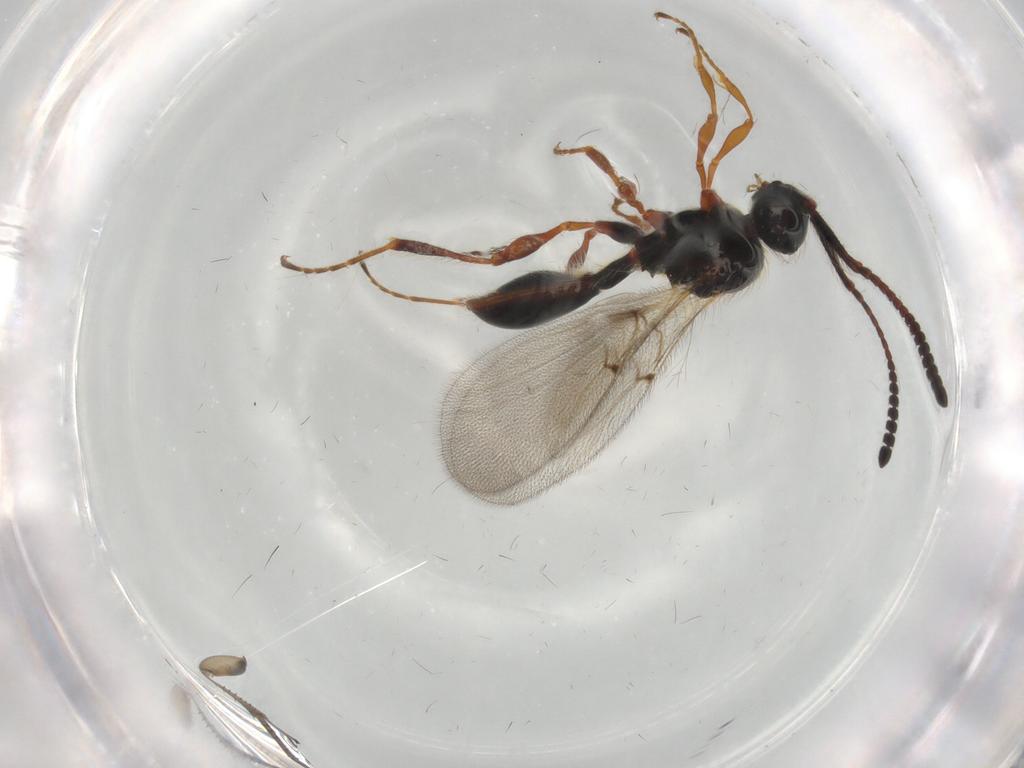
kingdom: Animalia
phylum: Arthropoda
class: Insecta
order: Hymenoptera
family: Diapriidae
